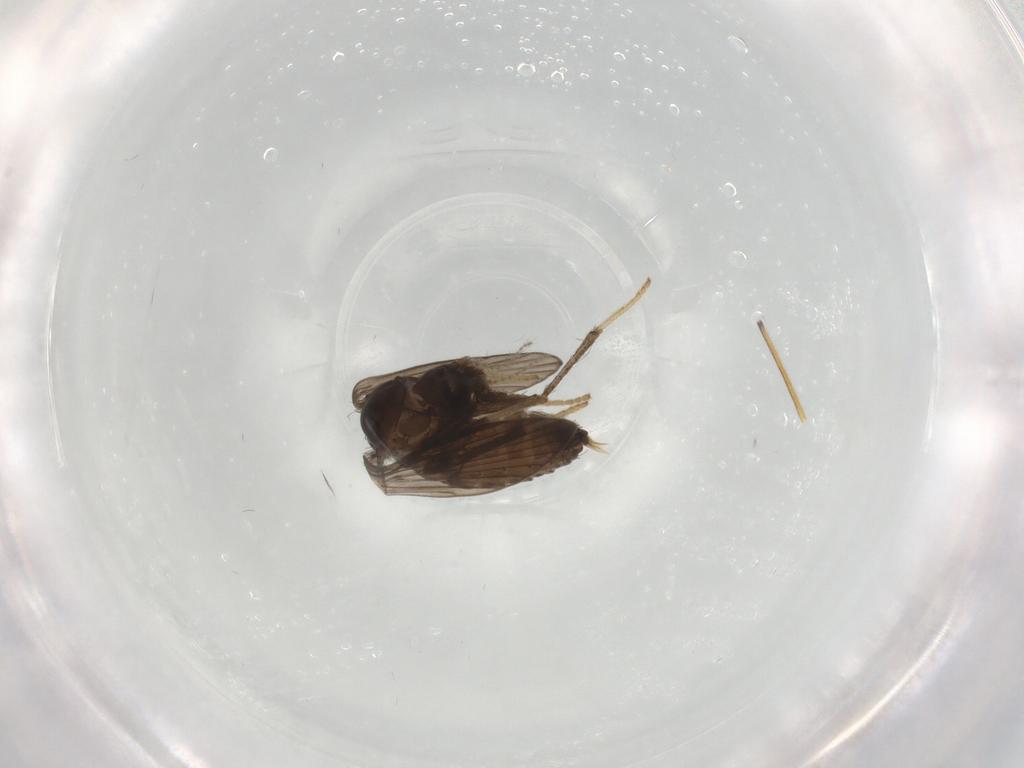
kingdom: Animalia
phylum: Arthropoda
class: Insecta
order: Diptera
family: Psychodidae
